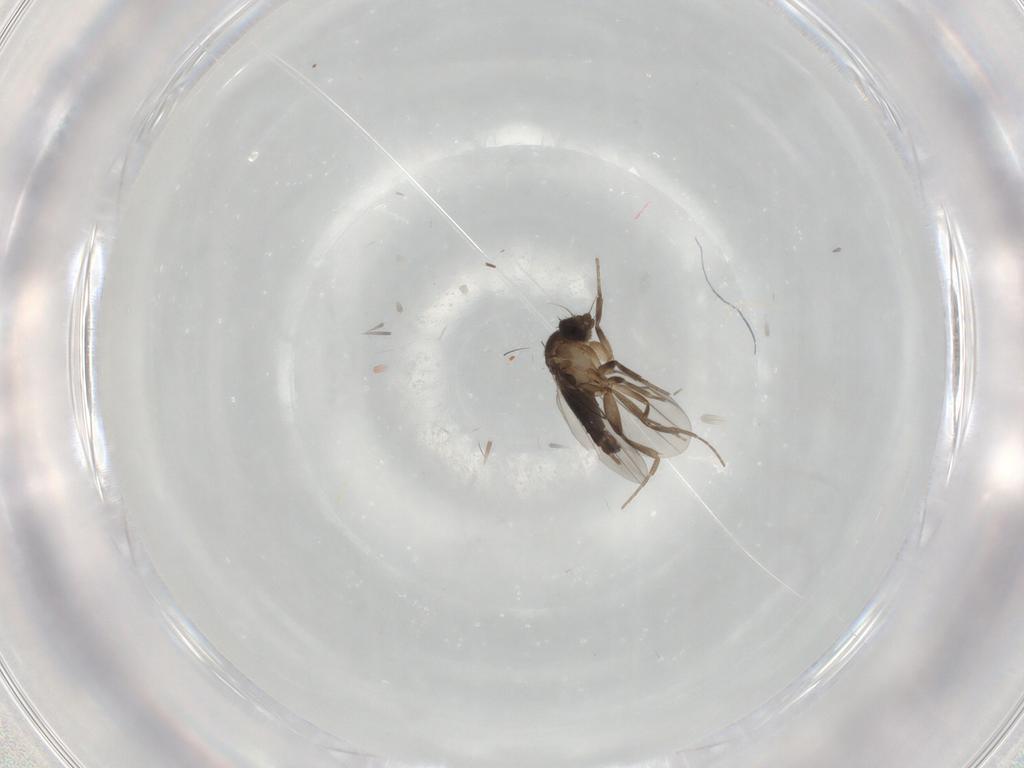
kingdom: Animalia
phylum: Arthropoda
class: Insecta
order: Diptera
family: Phoridae
